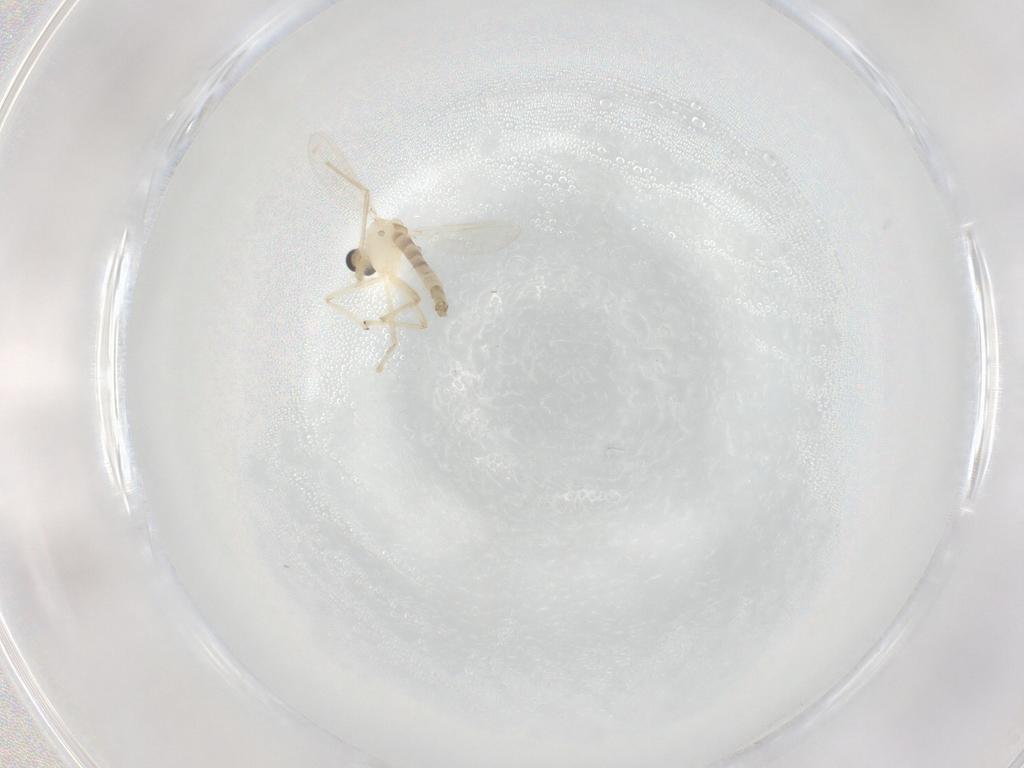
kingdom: Animalia
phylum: Arthropoda
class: Insecta
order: Diptera
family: Chironomidae
